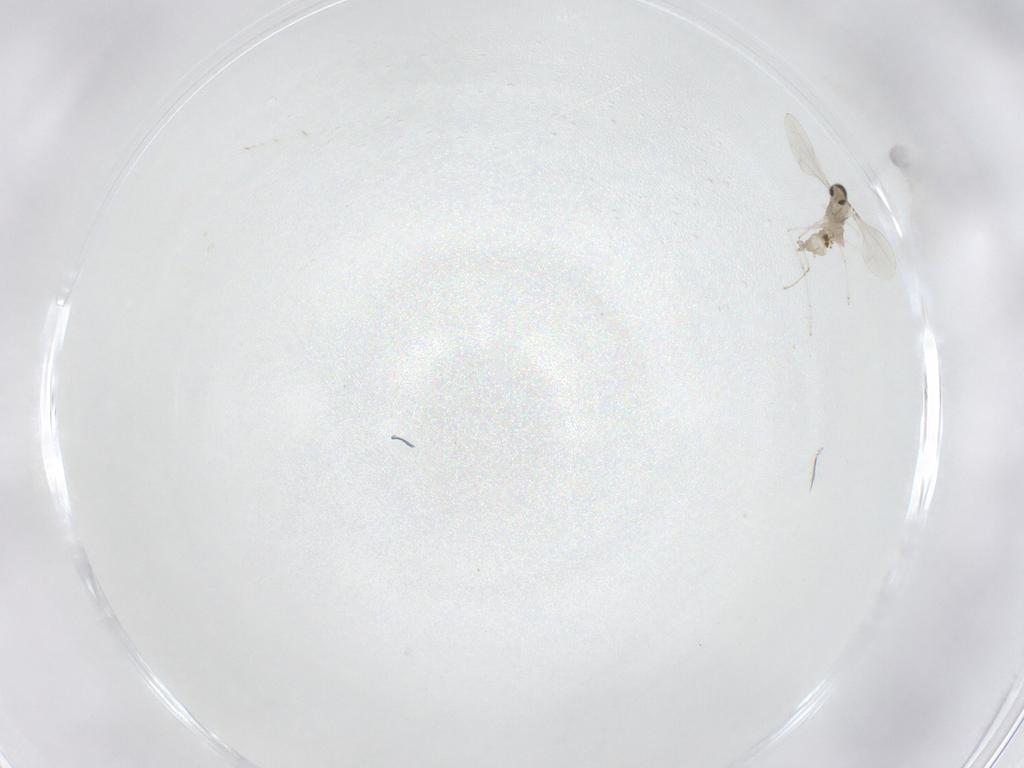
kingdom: Animalia
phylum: Arthropoda
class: Insecta
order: Diptera
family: Cecidomyiidae
